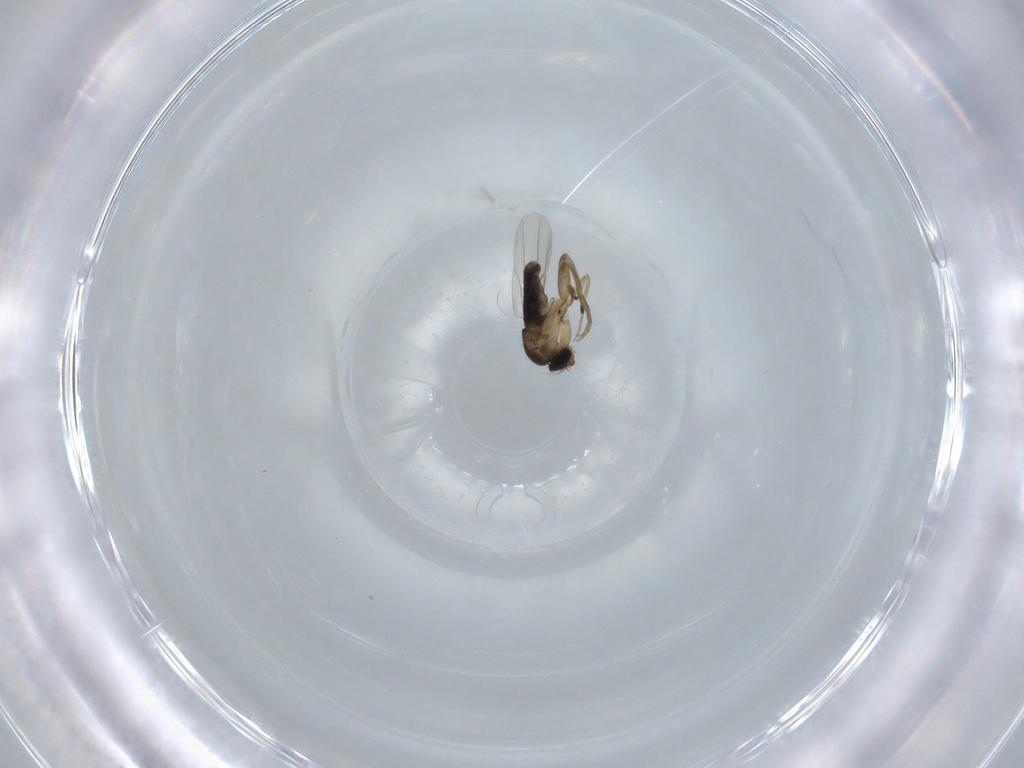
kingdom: Animalia
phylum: Arthropoda
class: Insecta
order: Diptera
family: Phoridae
